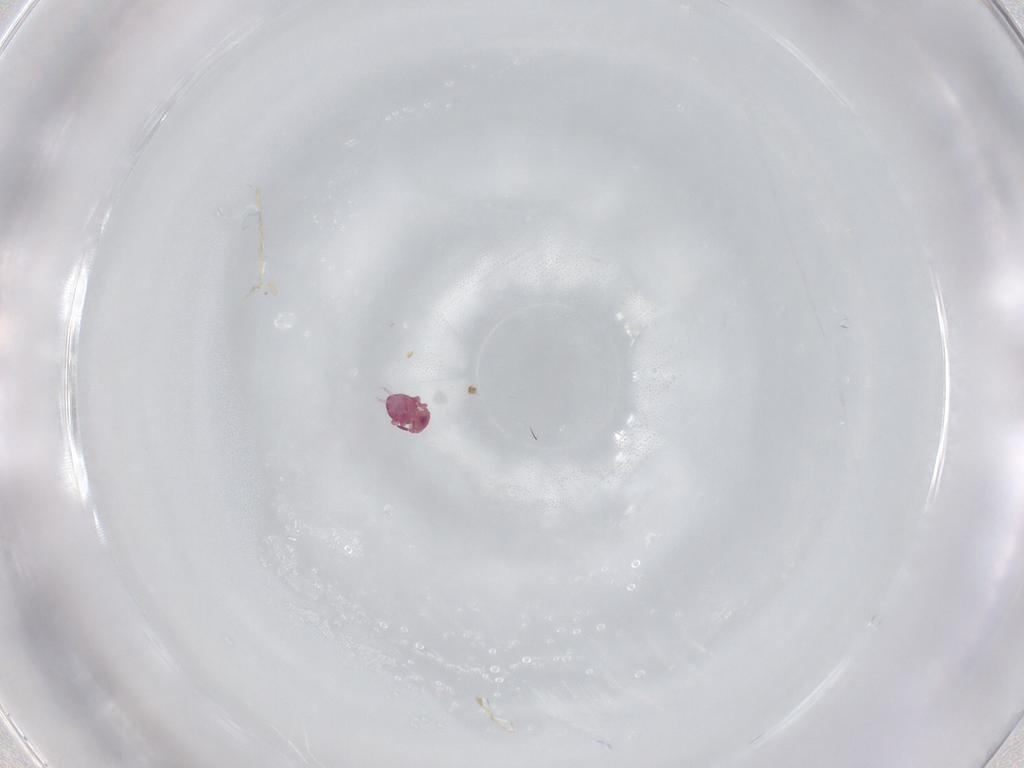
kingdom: Animalia
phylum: Arthropoda
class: Collembola
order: Symphypleona
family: Sminthurididae
